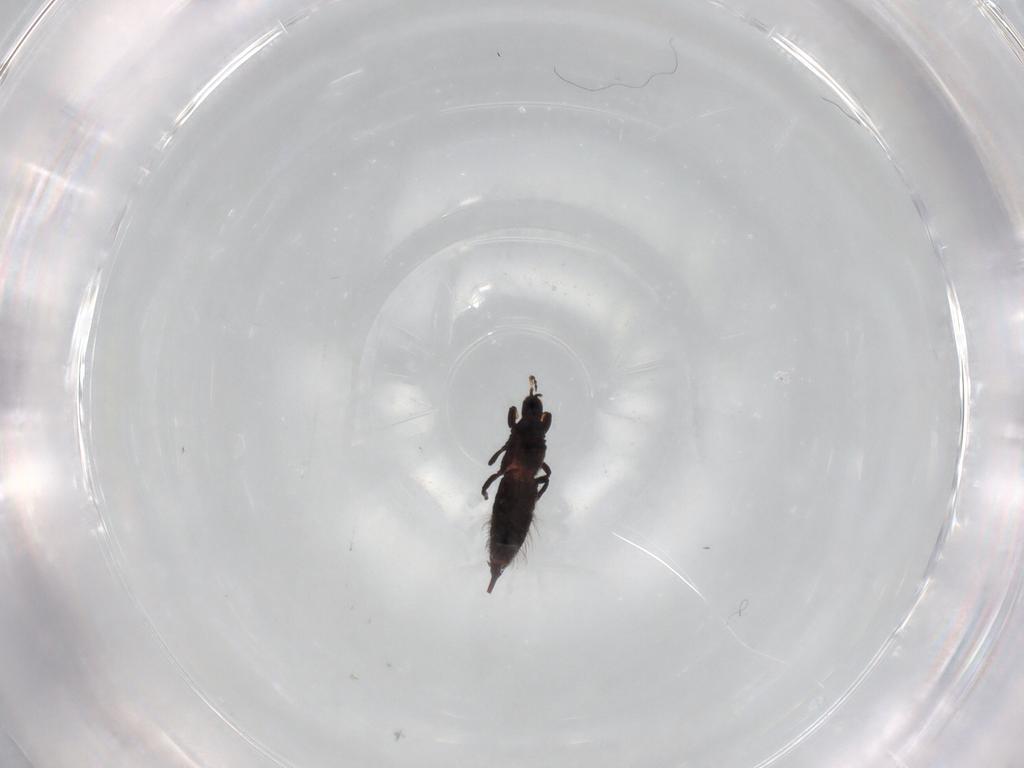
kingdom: Animalia
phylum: Arthropoda
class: Insecta
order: Thysanoptera
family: Phlaeothripidae
